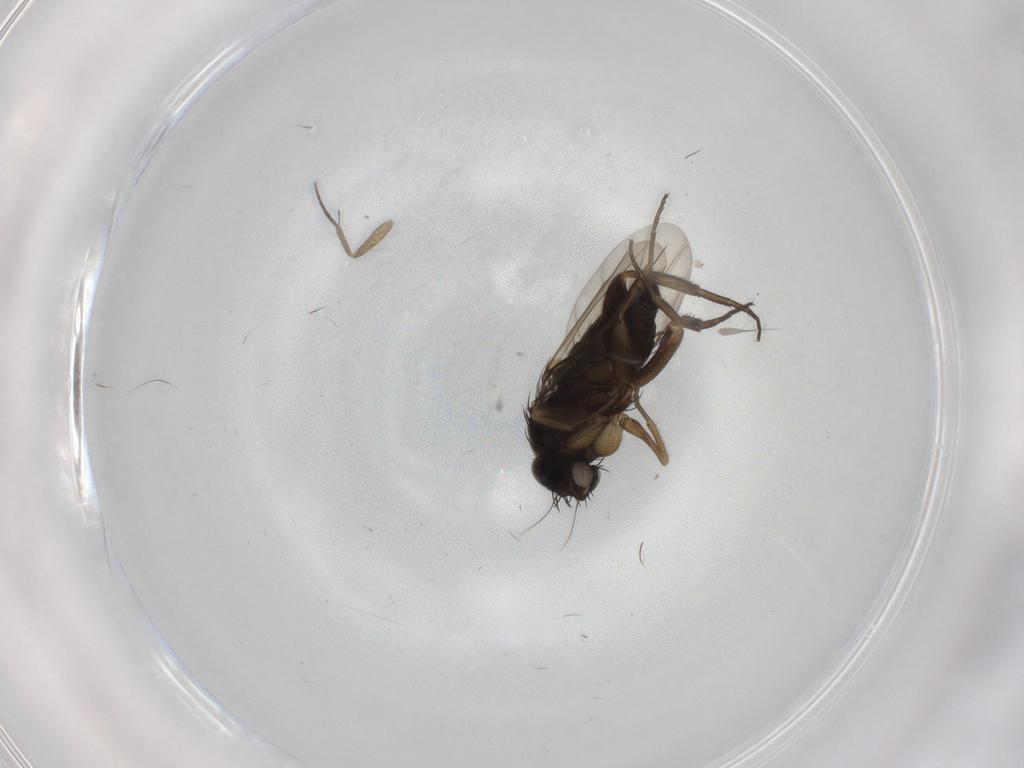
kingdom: Animalia
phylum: Arthropoda
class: Insecta
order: Diptera
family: Phoridae
